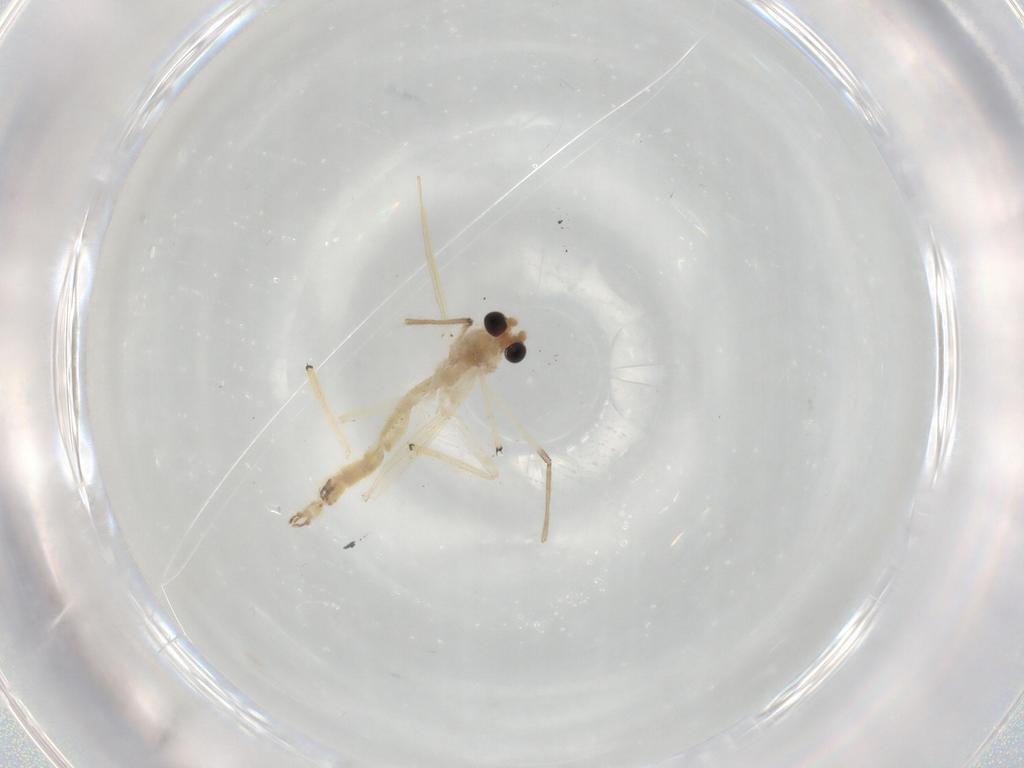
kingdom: Animalia
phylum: Arthropoda
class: Insecta
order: Diptera
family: Chironomidae
